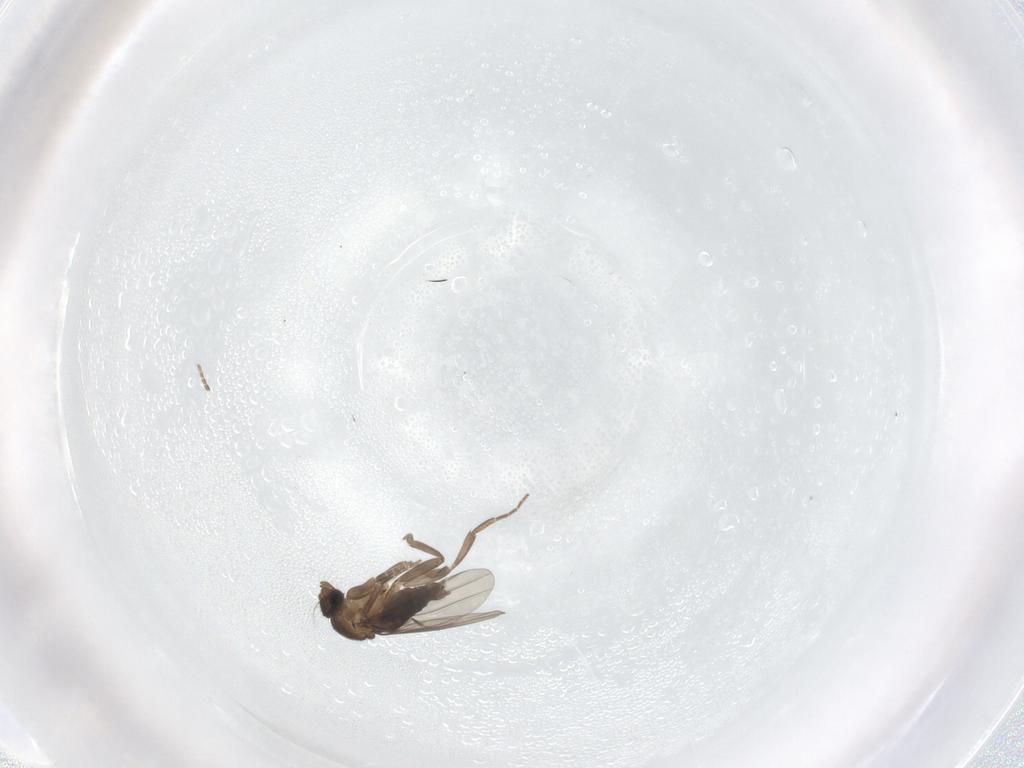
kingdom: Animalia
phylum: Arthropoda
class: Insecta
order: Diptera
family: Phoridae
